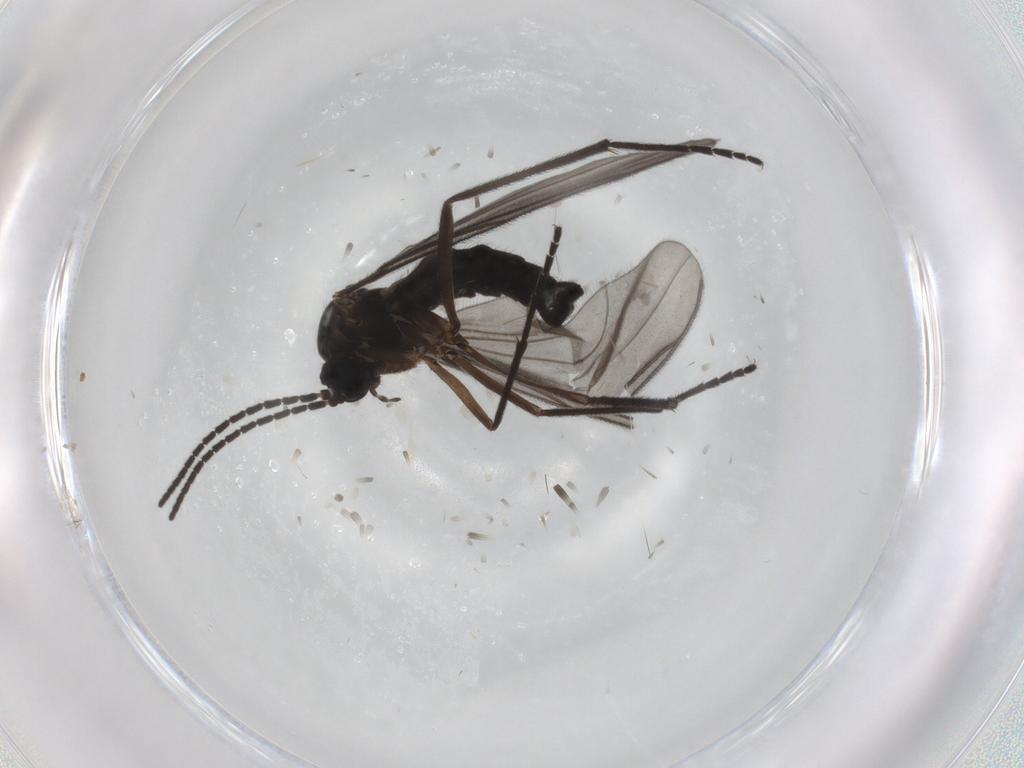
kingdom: Animalia
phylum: Arthropoda
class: Insecta
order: Diptera
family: Sciaridae
